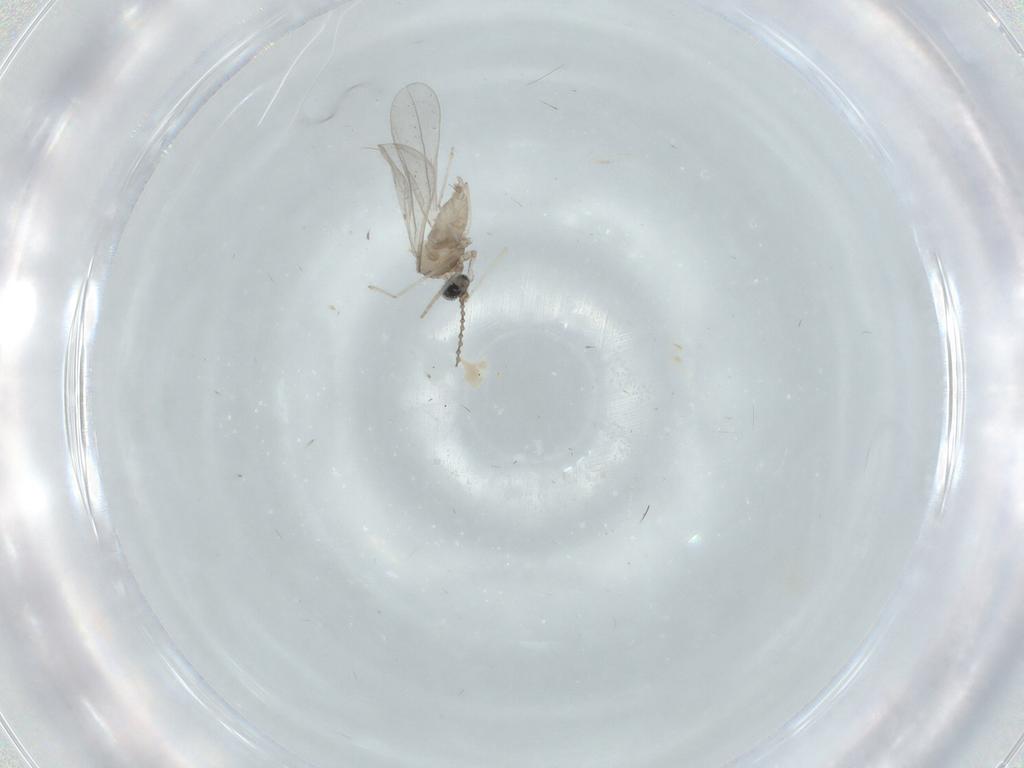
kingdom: Animalia
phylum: Arthropoda
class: Insecta
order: Diptera
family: Cecidomyiidae
